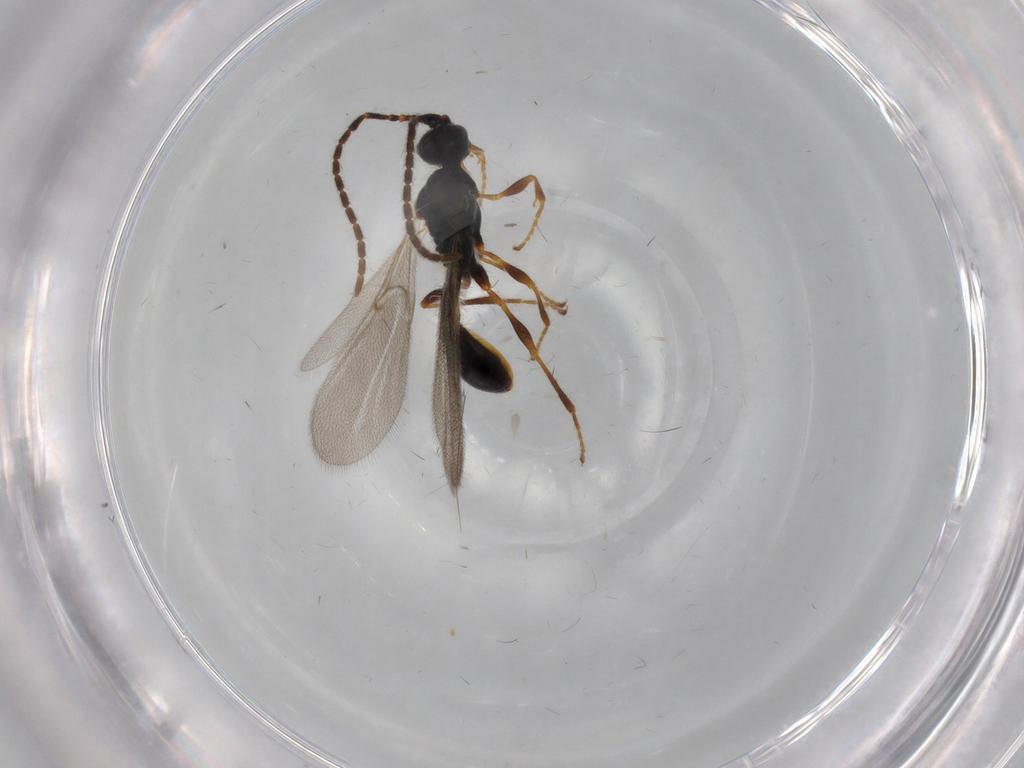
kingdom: Animalia
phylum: Arthropoda
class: Insecta
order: Hymenoptera
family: Diapriidae
